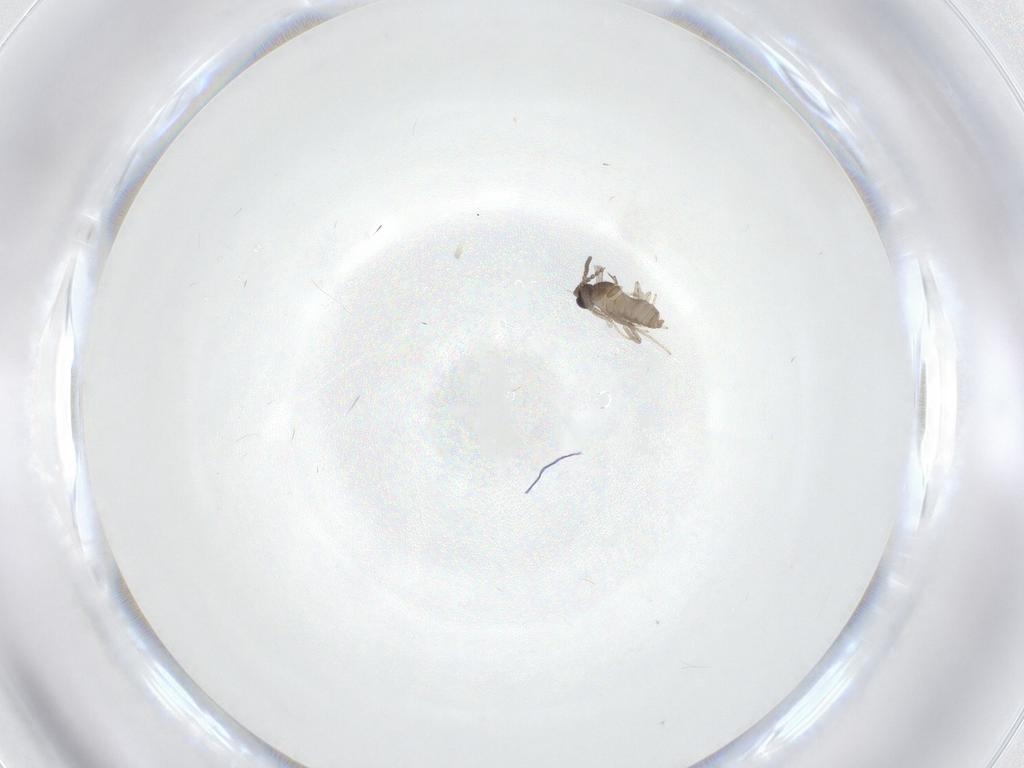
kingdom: Animalia
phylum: Arthropoda
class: Insecta
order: Diptera
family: Cecidomyiidae
